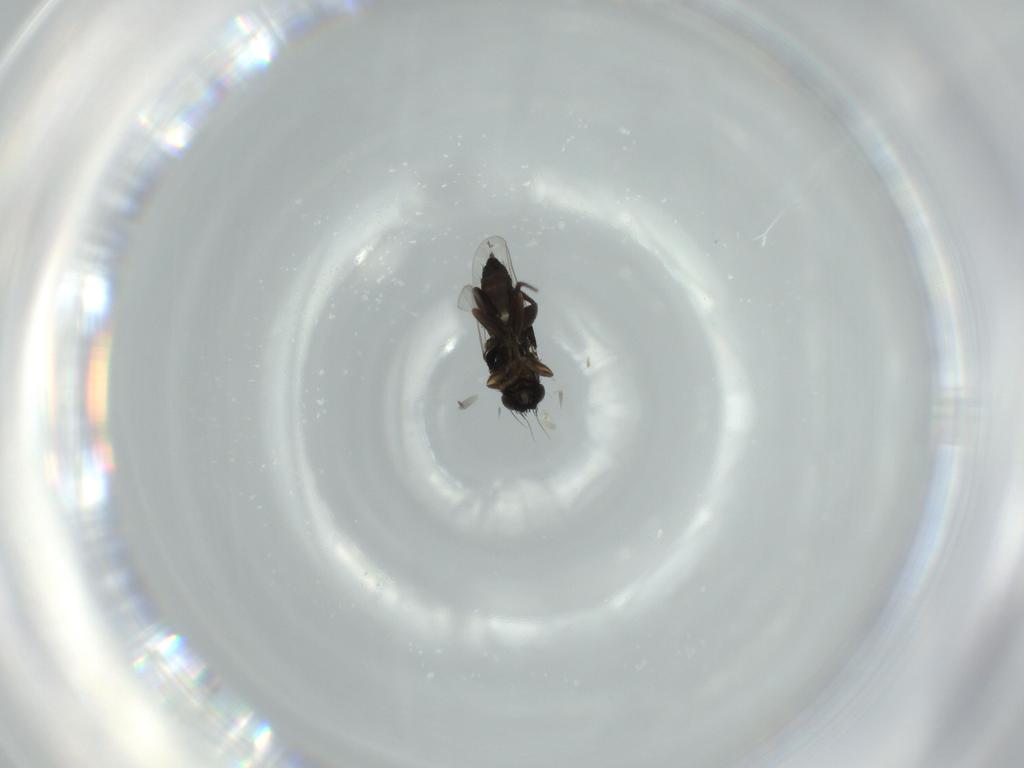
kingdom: Animalia
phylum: Arthropoda
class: Insecta
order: Diptera
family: Phoridae
